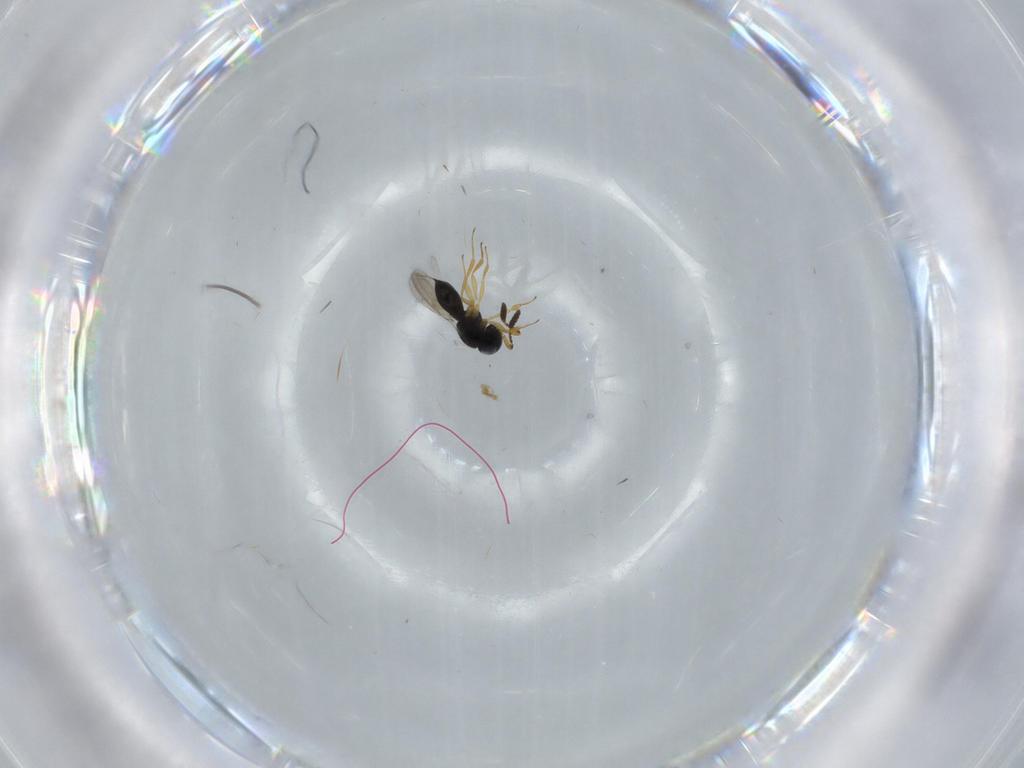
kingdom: Animalia
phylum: Arthropoda
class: Insecta
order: Hymenoptera
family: Scelionidae
